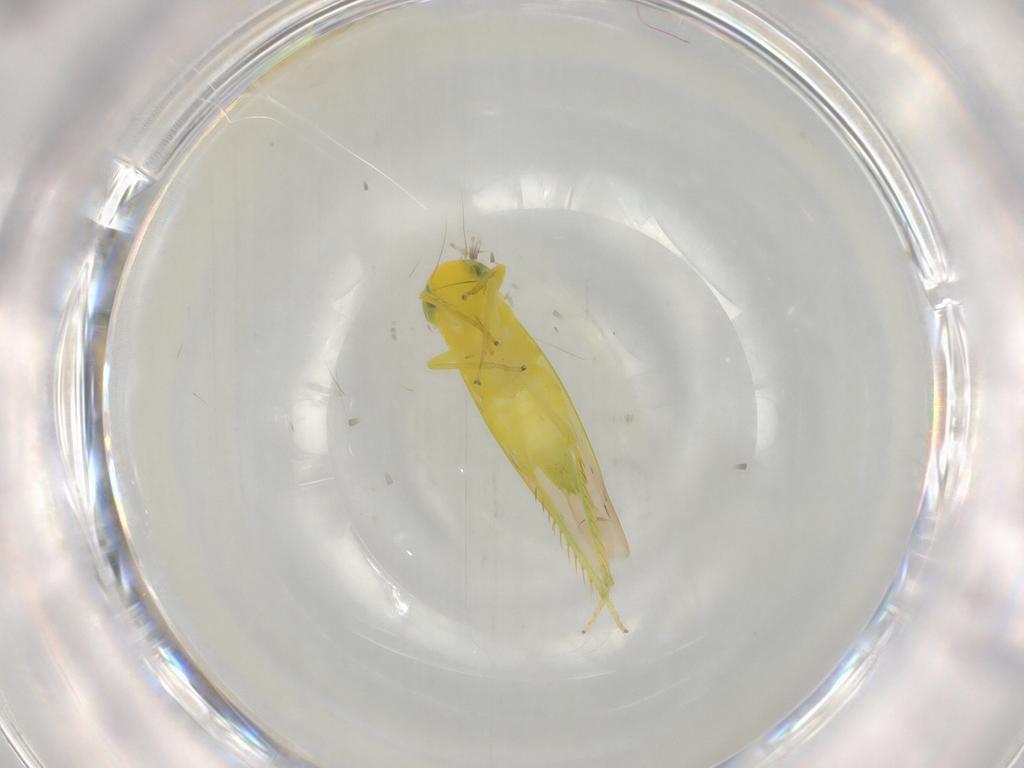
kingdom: Animalia
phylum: Arthropoda
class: Insecta
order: Hemiptera
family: Cicadellidae
